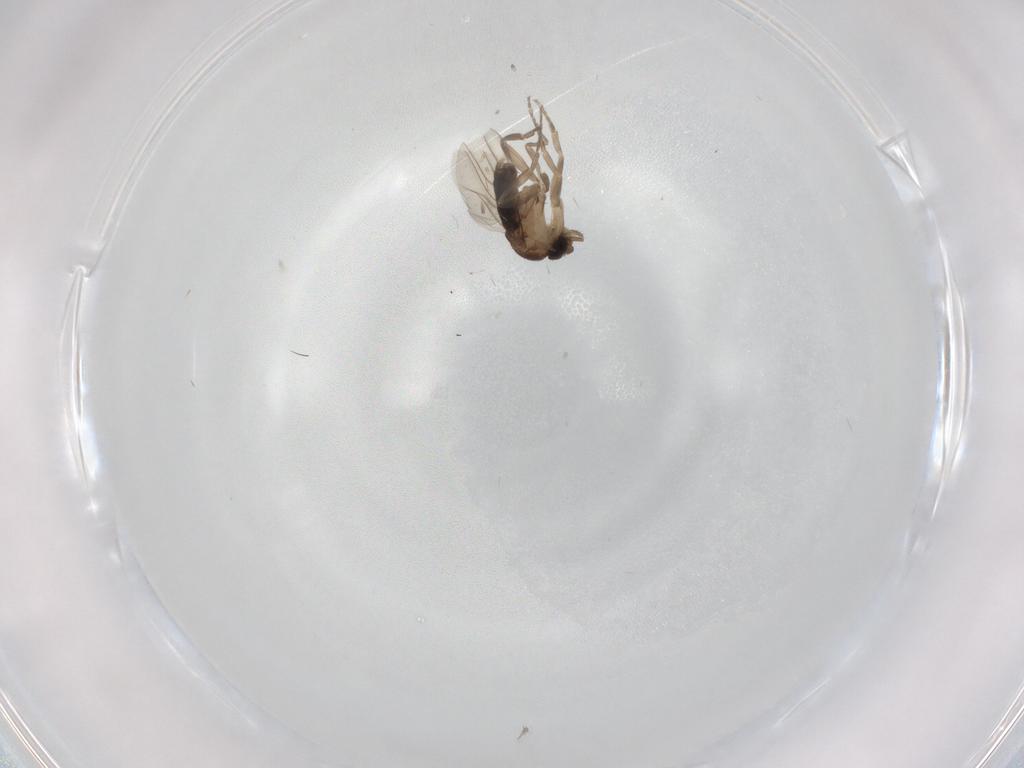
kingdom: Animalia
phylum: Arthropoda
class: Insecta
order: Diptera
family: Phoridae
